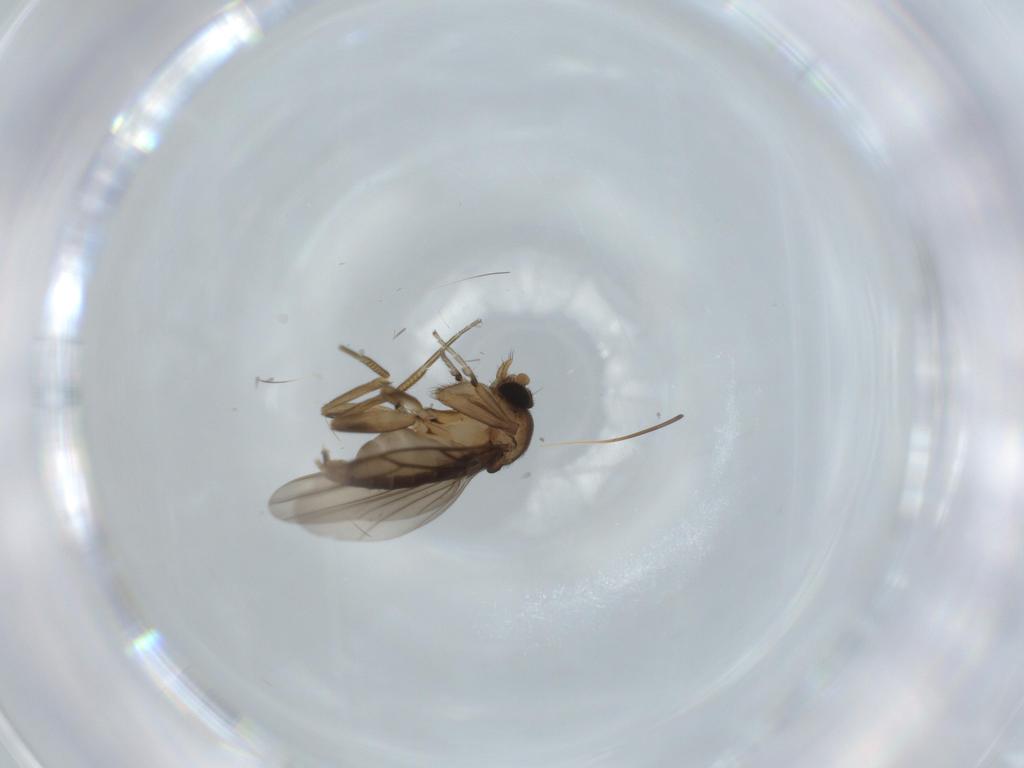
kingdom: Animalia
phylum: Arthropoda
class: Insecta
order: Diptera
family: Cecidomyiidae
